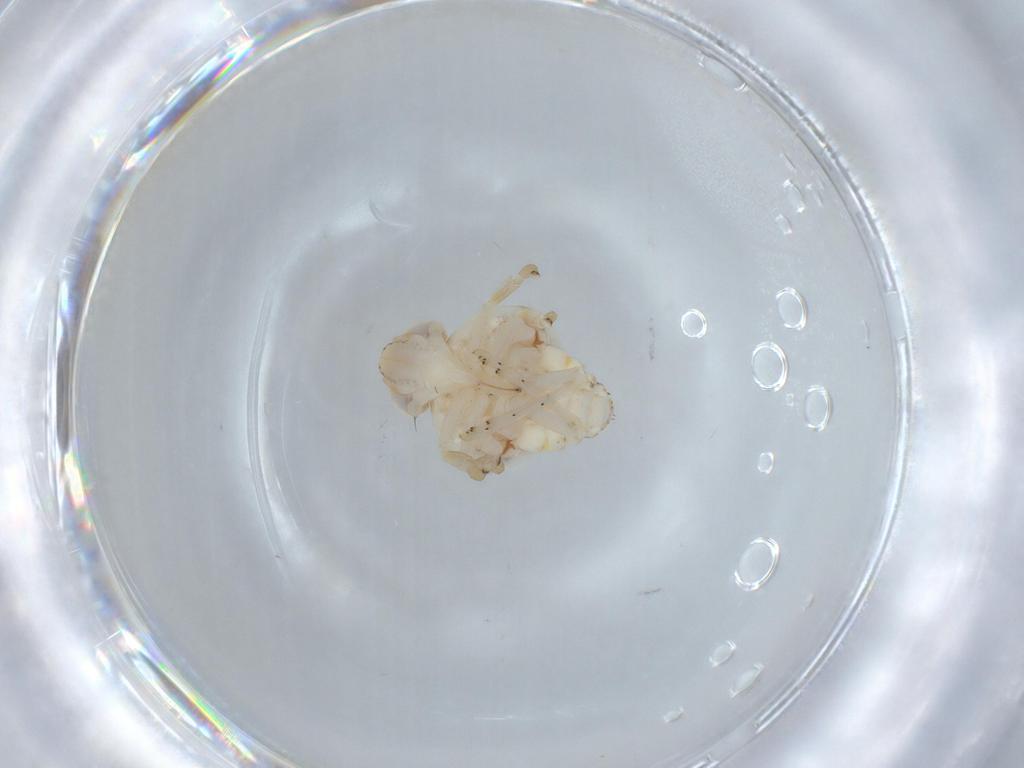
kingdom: Animalia
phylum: Arthropoda
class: Insecta
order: Hemiptera
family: Nogodinidae
